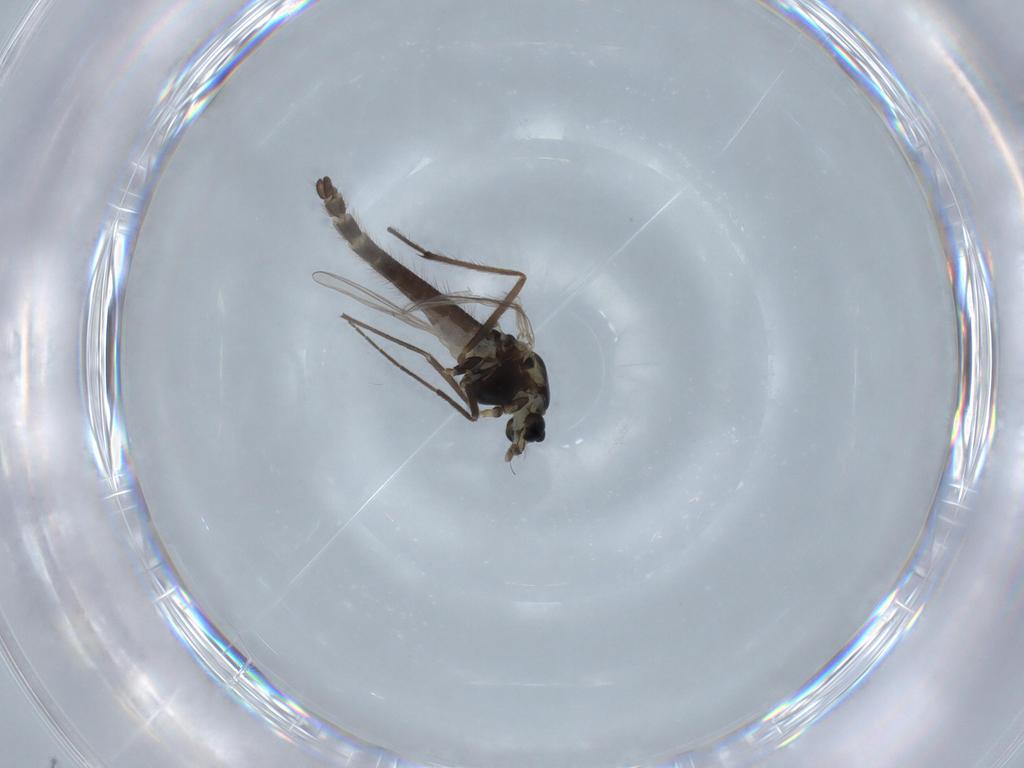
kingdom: Animalia
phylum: Arthropoda
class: Insecta
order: Diptera
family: Chironomidae
